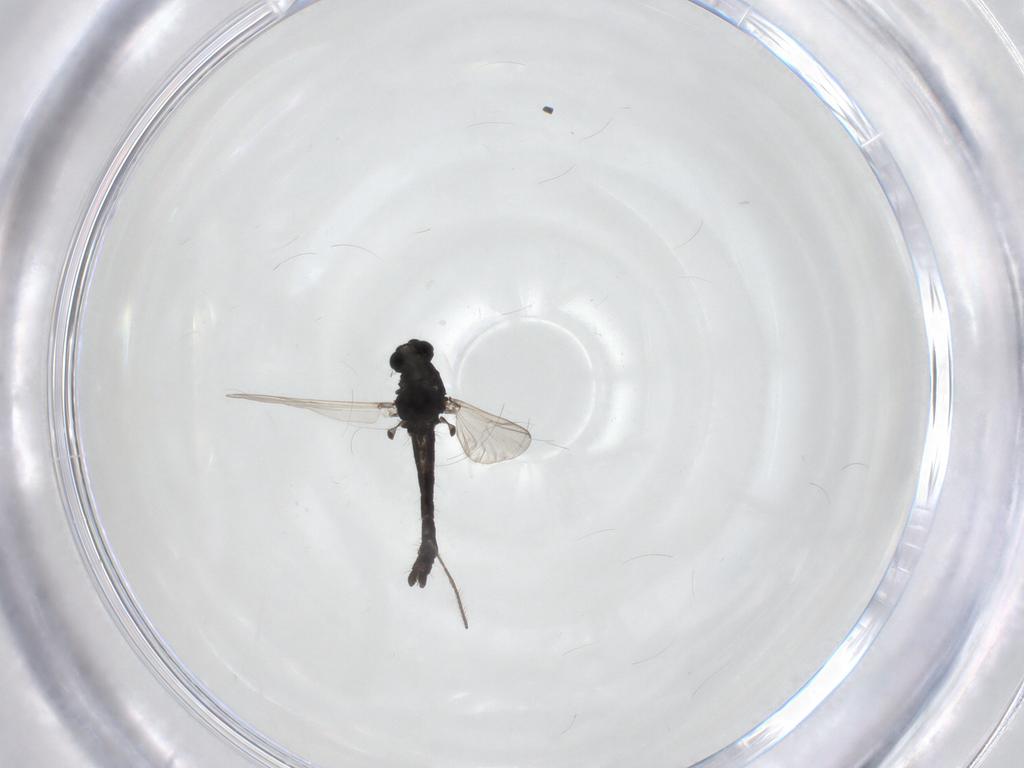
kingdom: Animalia
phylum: Arthropoda
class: Insecta
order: Diptera
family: Chironomidae
